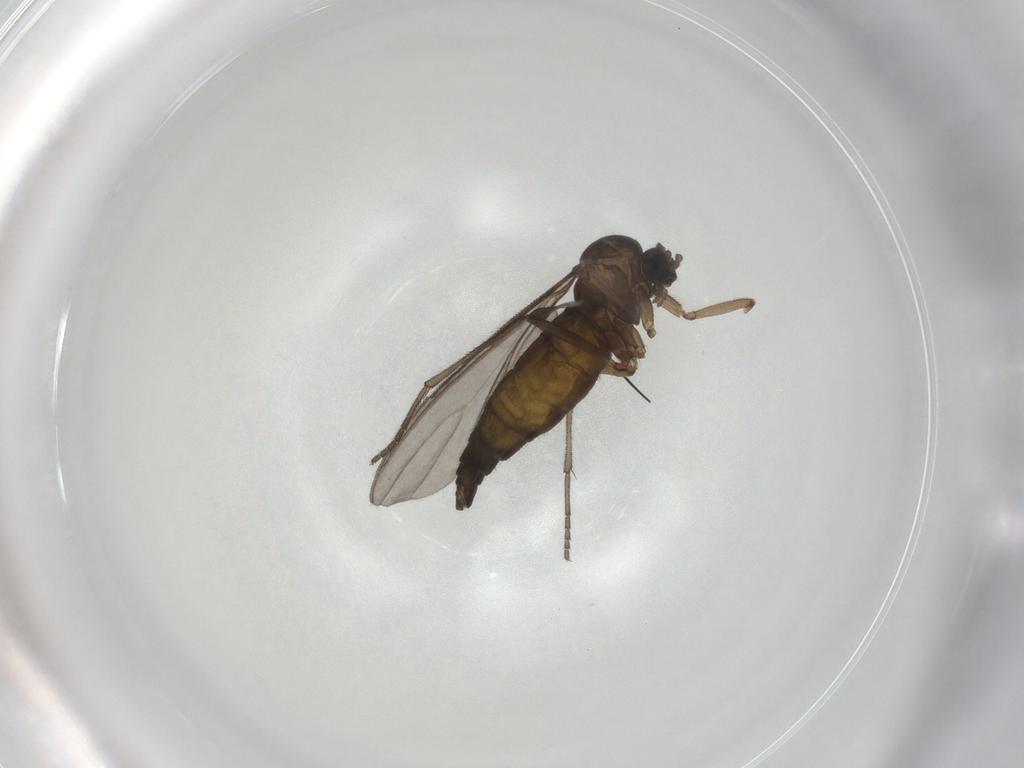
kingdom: Animalia
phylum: Arthropoda
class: Insecta
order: Diptera
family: Sciaridae
